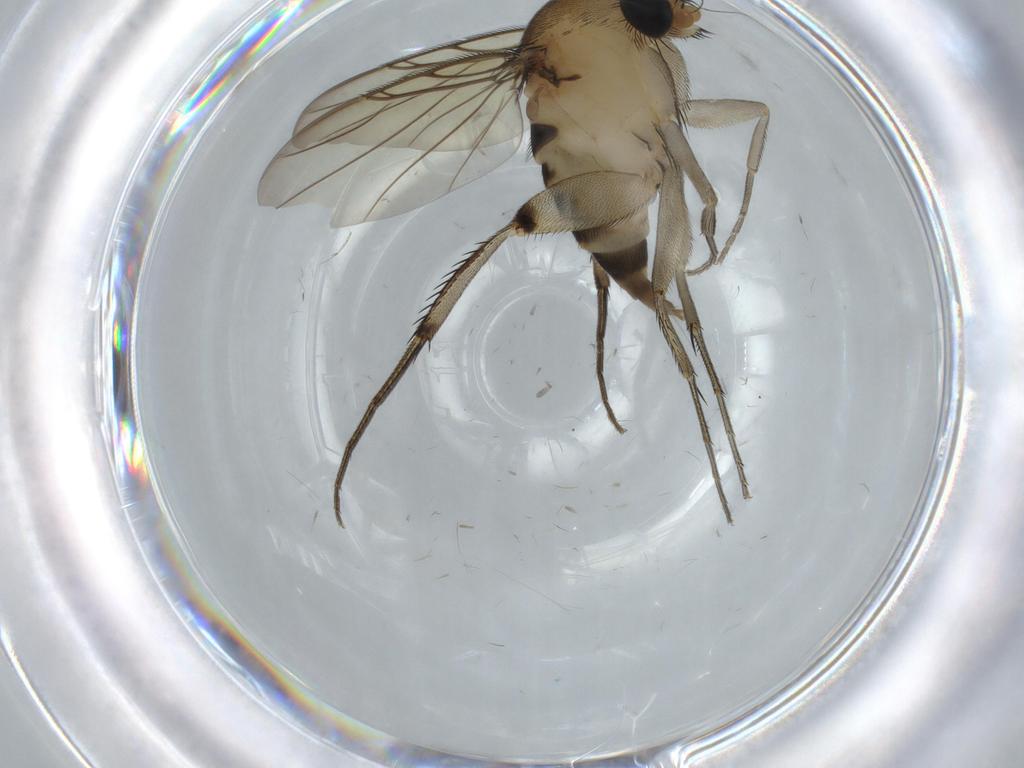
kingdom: Animalia
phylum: Arthropoda
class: Insecta
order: Diptera
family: Phoridae
